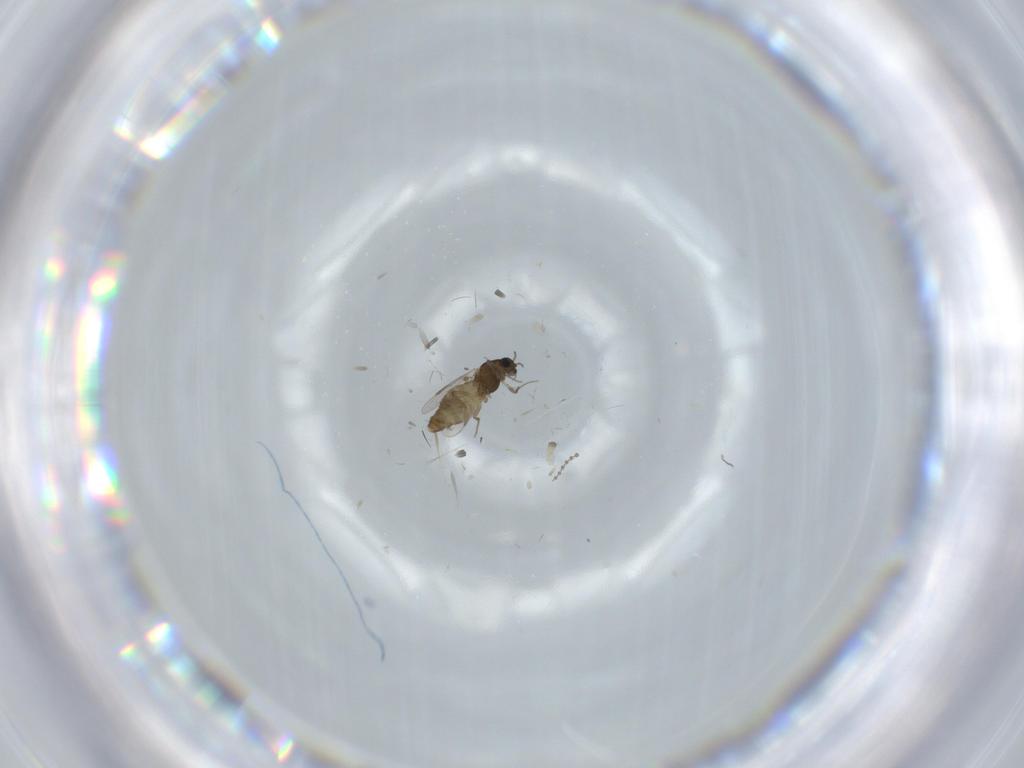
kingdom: Animalia
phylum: Arthropoda
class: Insecta
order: Diptera
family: Chironomidae
